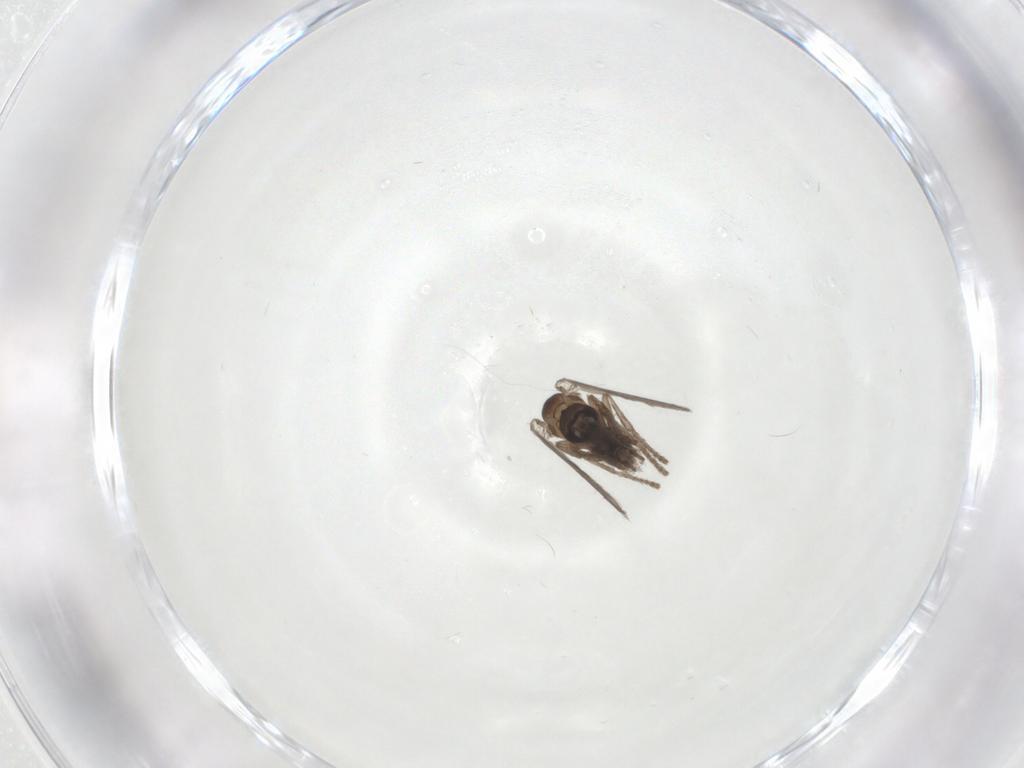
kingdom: Animalia
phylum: Arthropoda
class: Insecta
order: Diptera
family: Psychodidae
